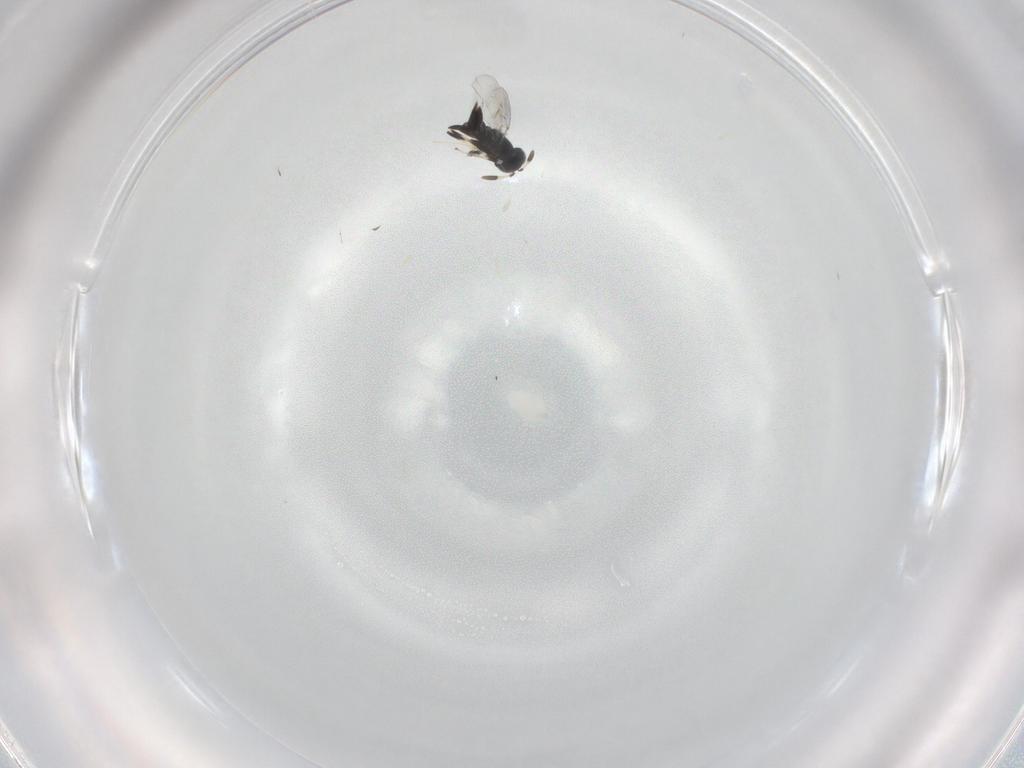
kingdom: Animalia
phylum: Arthropoda
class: Insecta
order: Hymenoptera
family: Encyrtidae
